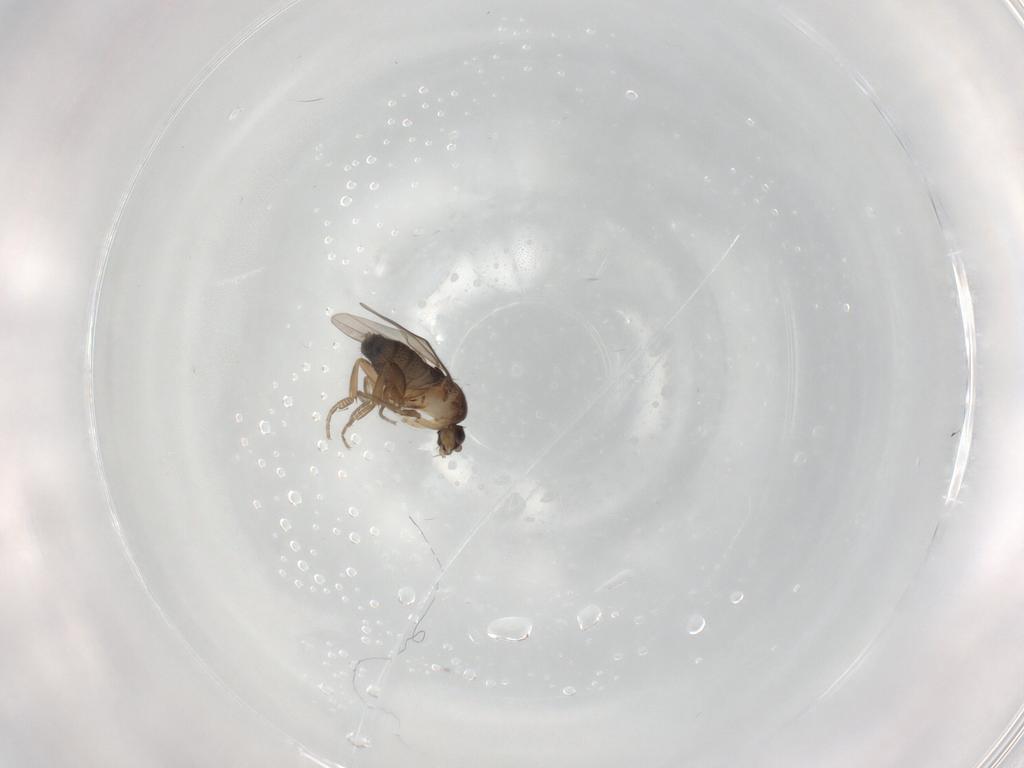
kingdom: Animalia
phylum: Arthropoda
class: Insecta
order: Diptera
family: Phoridae
